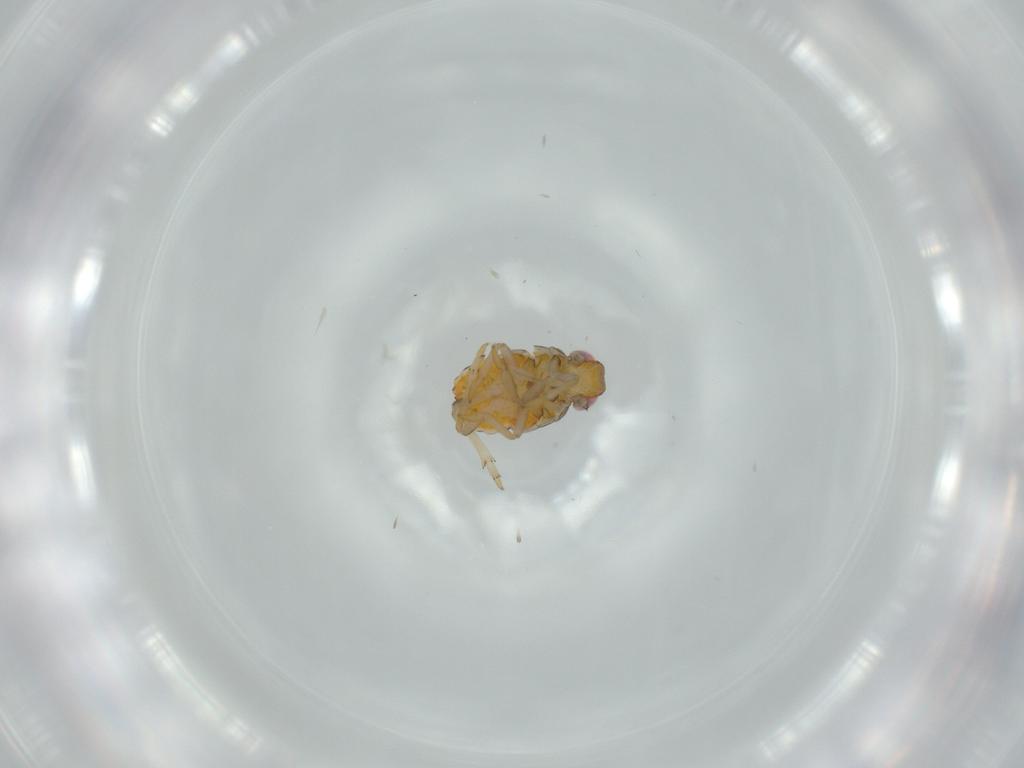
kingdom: Animalia
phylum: Arthropoda
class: Insecta
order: Hemiptera
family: Issidae
